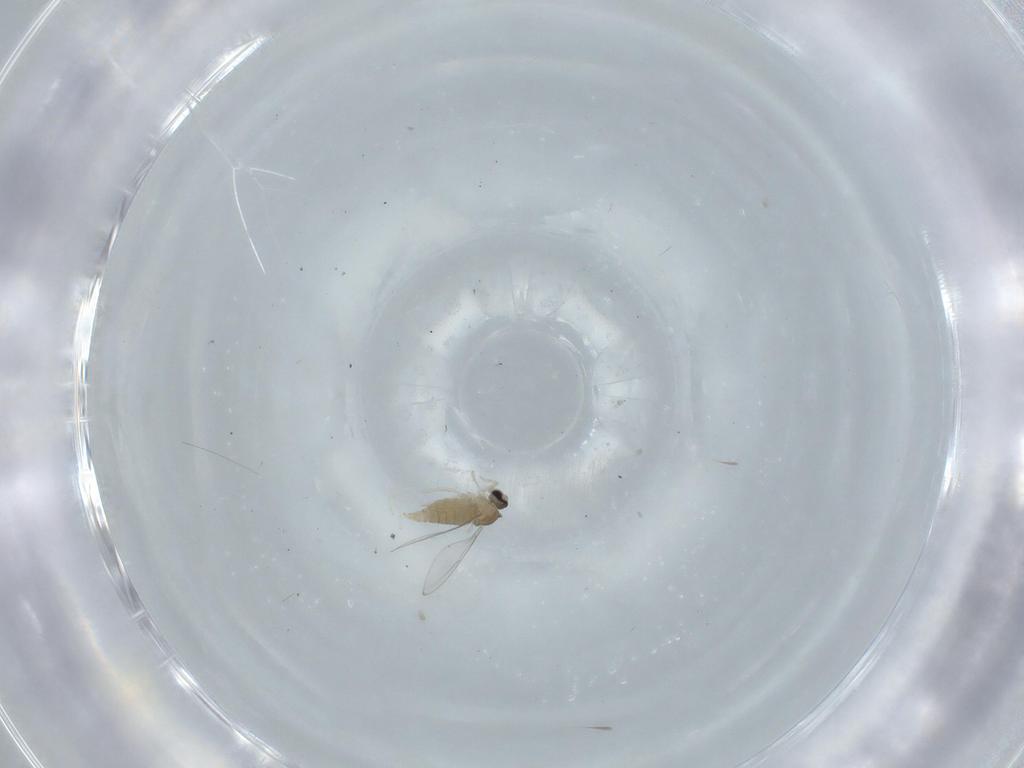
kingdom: Animalia
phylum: Arthropoda
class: Insecta
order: Diptera
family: Cecidomyiidae
